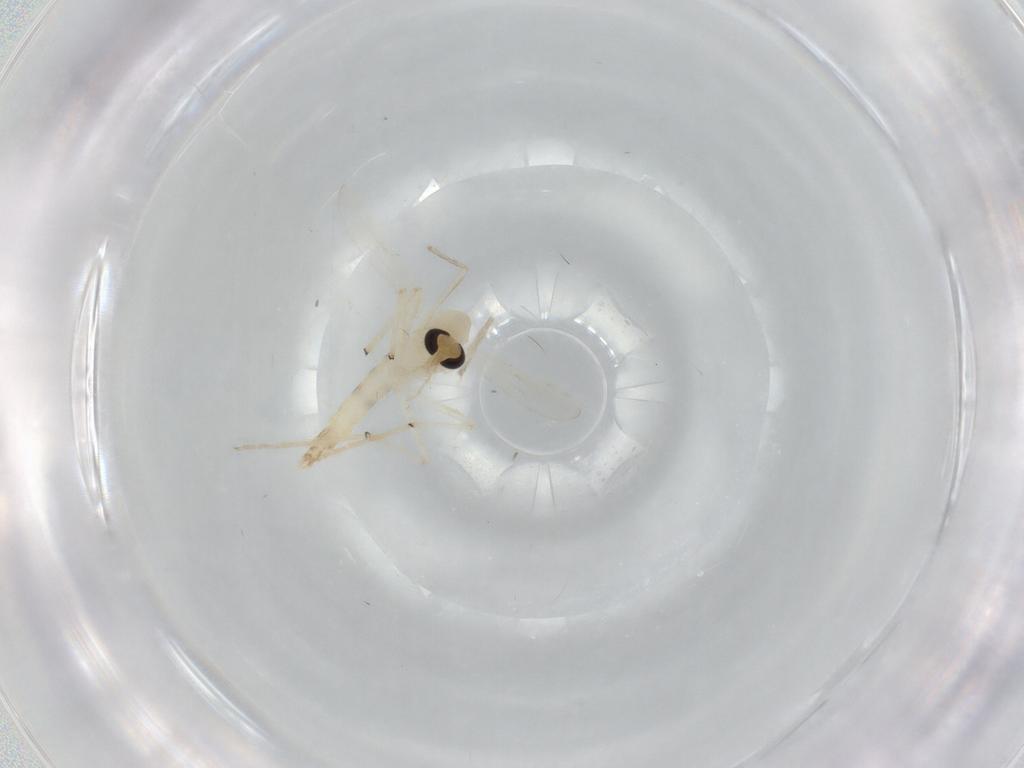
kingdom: Animalia
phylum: Arthropoda
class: Insecta
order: Diptera
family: Chironomidae
